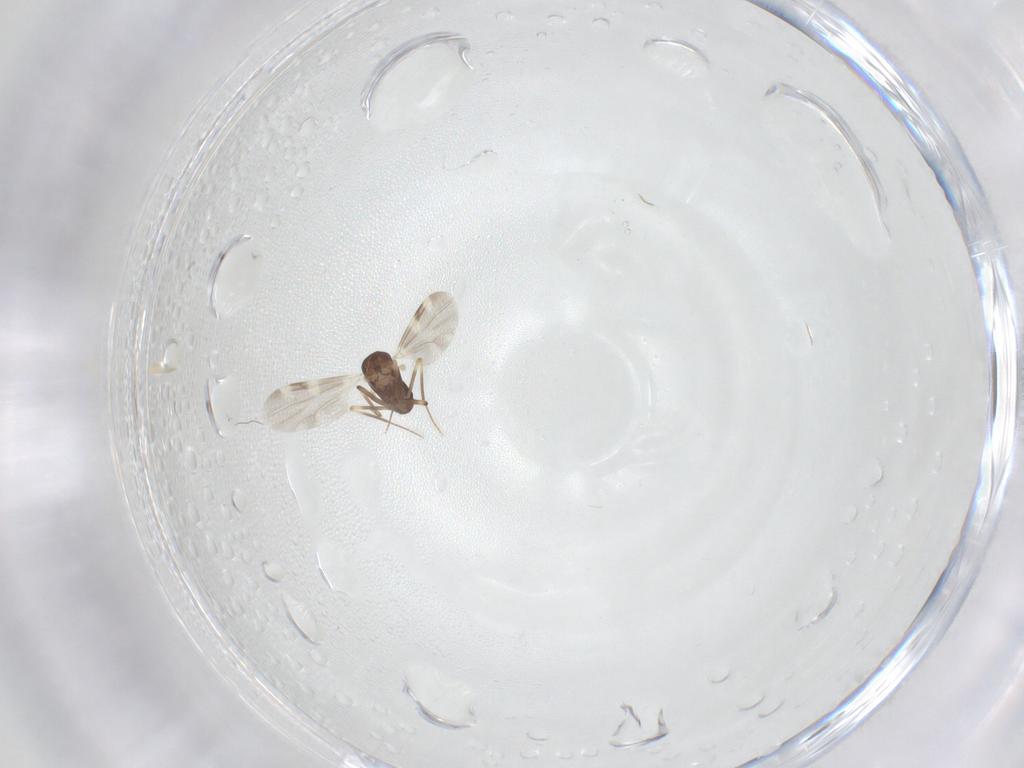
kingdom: Animalia
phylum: Arthropoda
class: Insecta
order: Diptera
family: Ceratopogonidae
